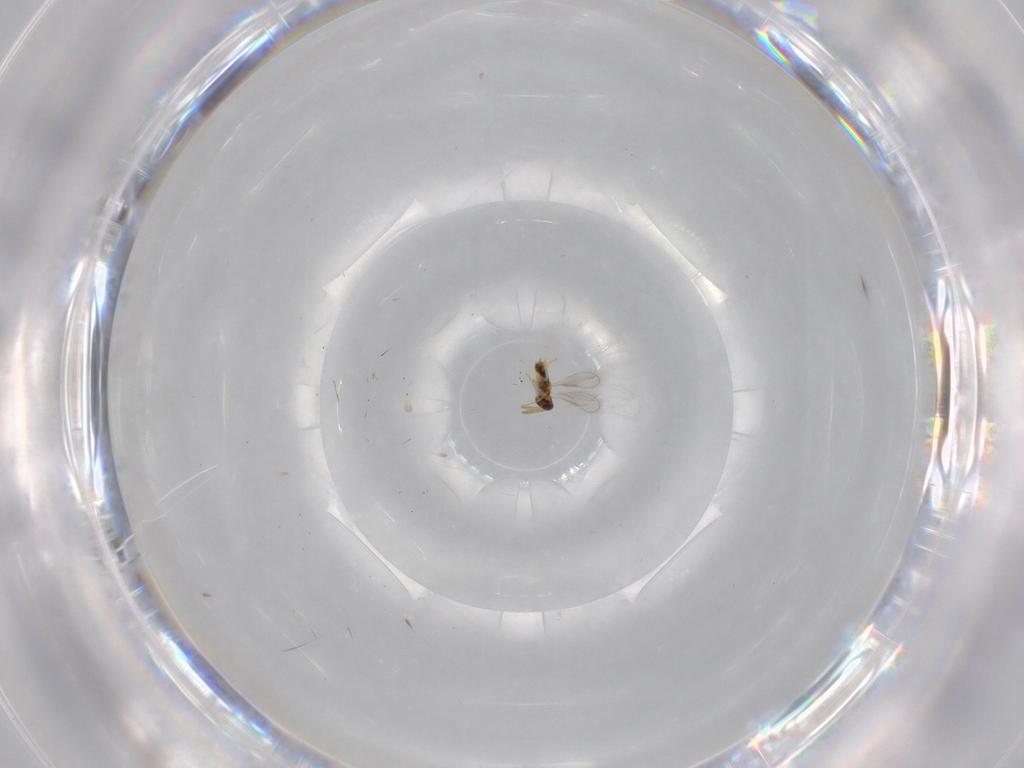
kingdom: Animalia
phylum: Arthropoda
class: Insecta
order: Hymenoptera
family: Aphelinidae
